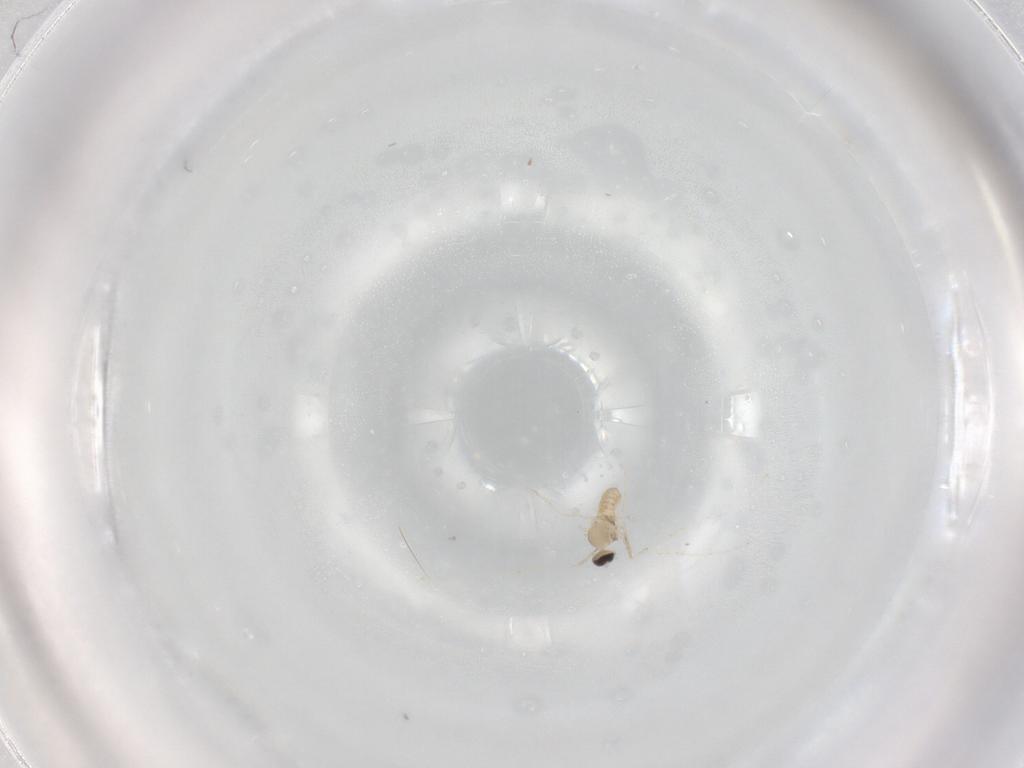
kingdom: Animalia
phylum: Arthropoda
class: Insecta
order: Diptera
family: Cecidomyiidae
